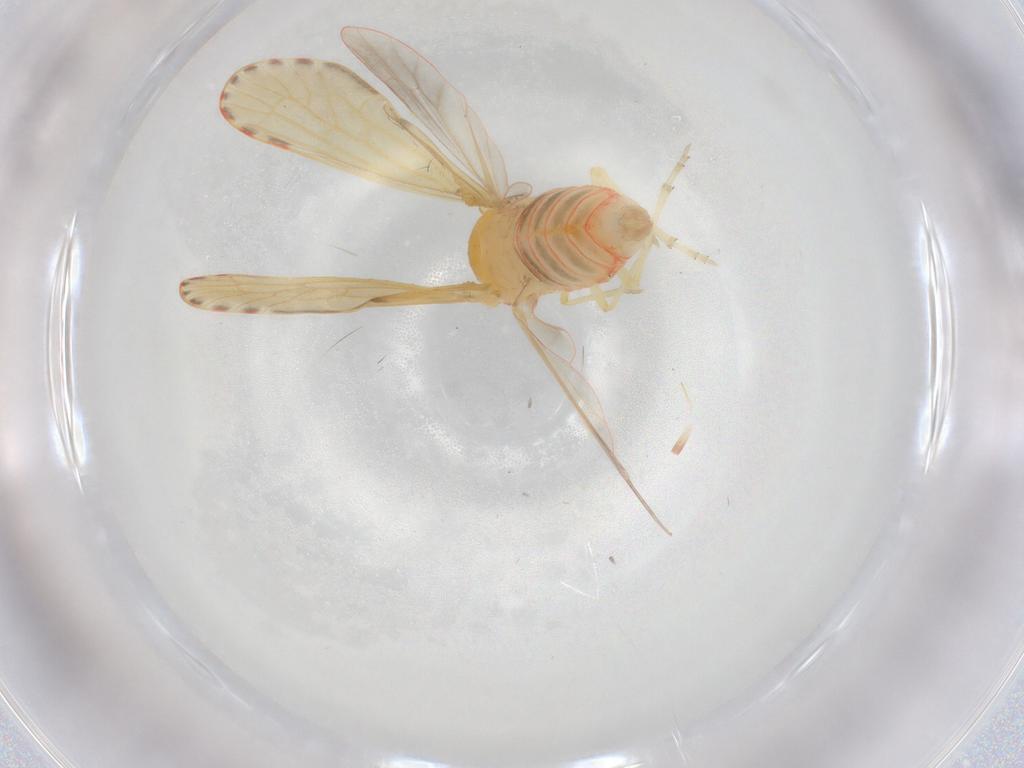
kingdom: Animalia
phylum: Arthropoda
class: Insecta
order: Hemiptera
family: Derbidae
